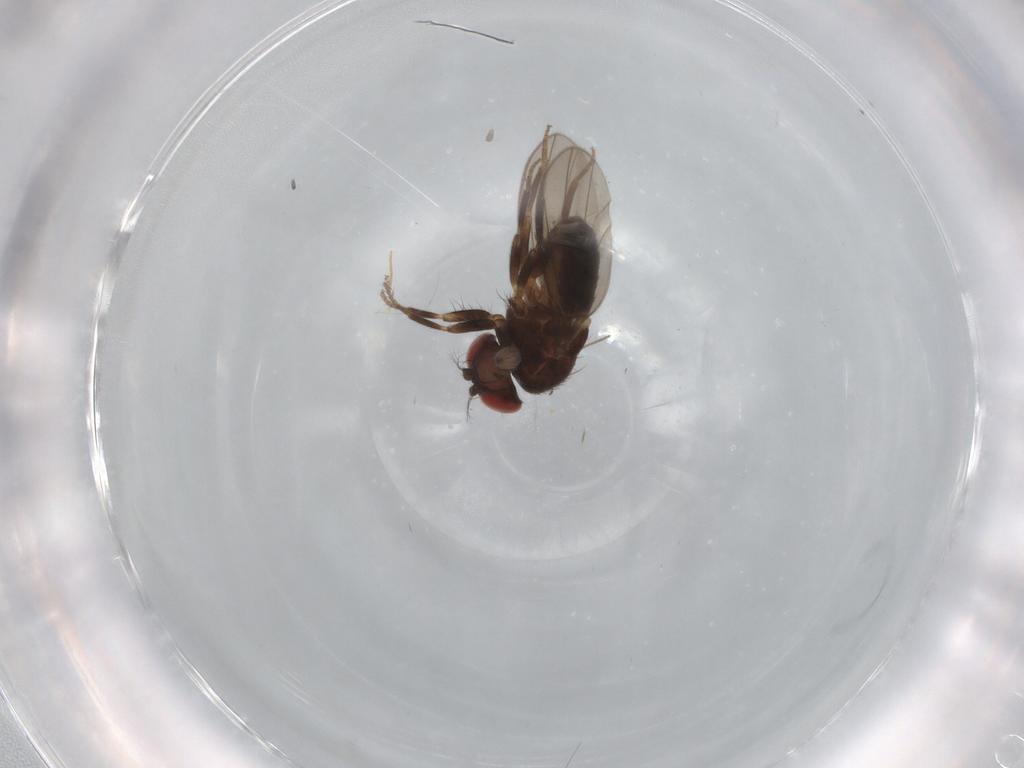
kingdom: Animalia
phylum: Arthropoda
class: Insecta
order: Diptera
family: Drosophilidae
